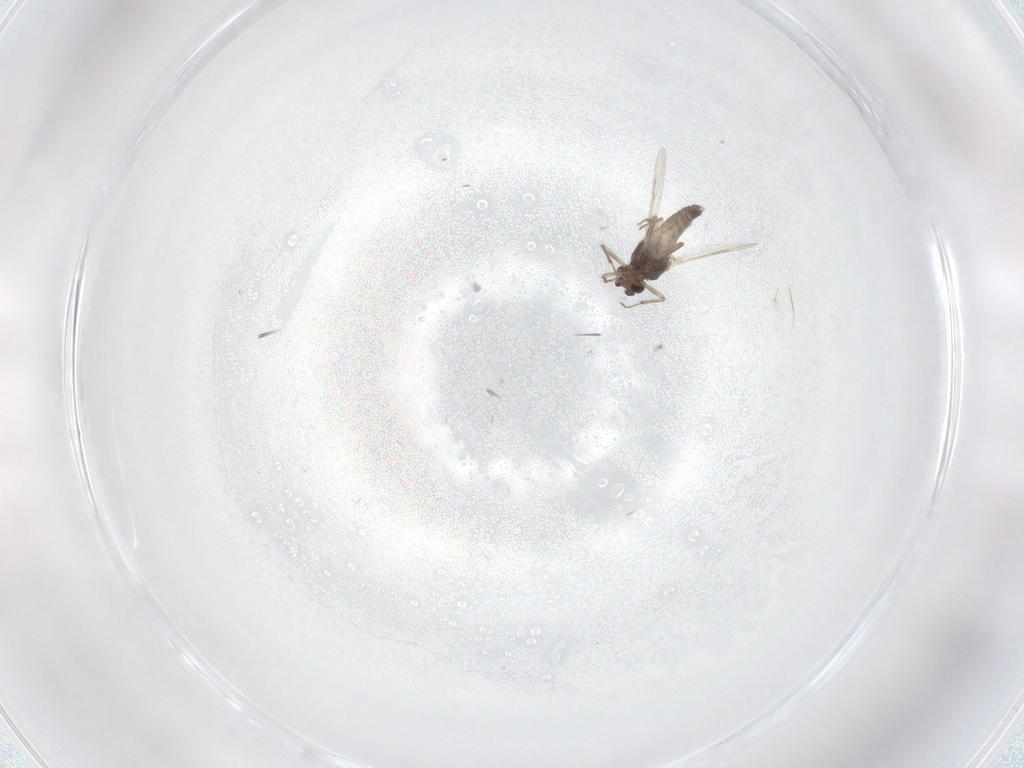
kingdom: Animalia
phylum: Arthropoda
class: Insecta
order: Diptera
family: Ceratopogonidae
